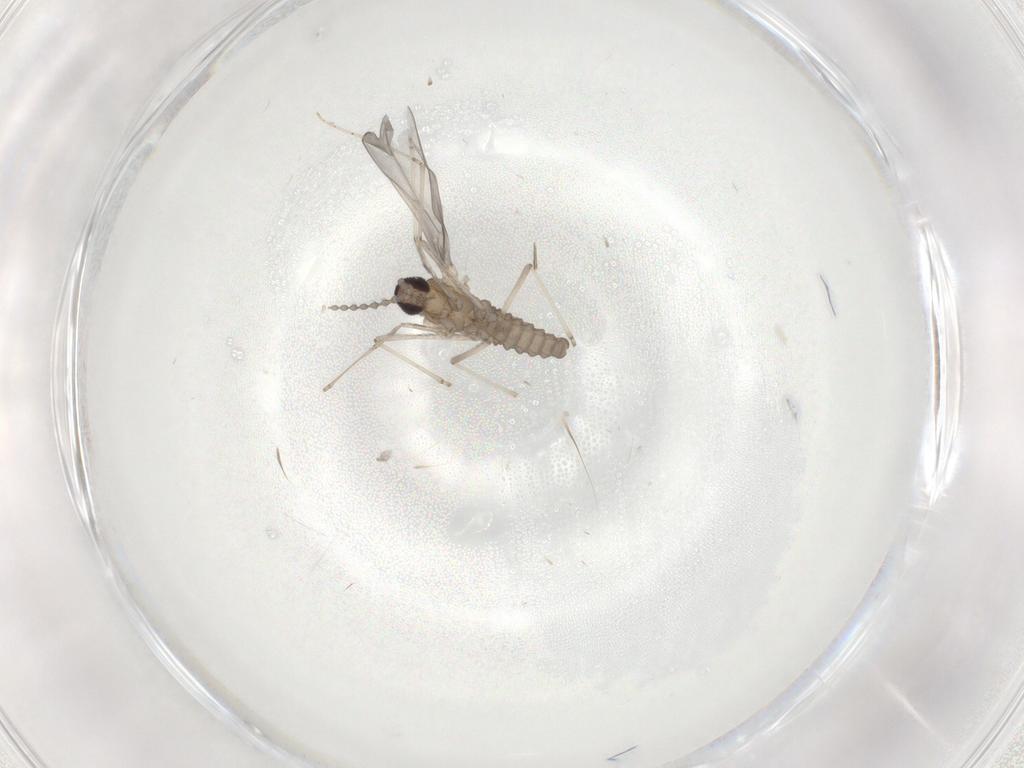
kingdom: Animalia
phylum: Arthropoda
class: Insecta
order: Diptera
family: Phoridae
